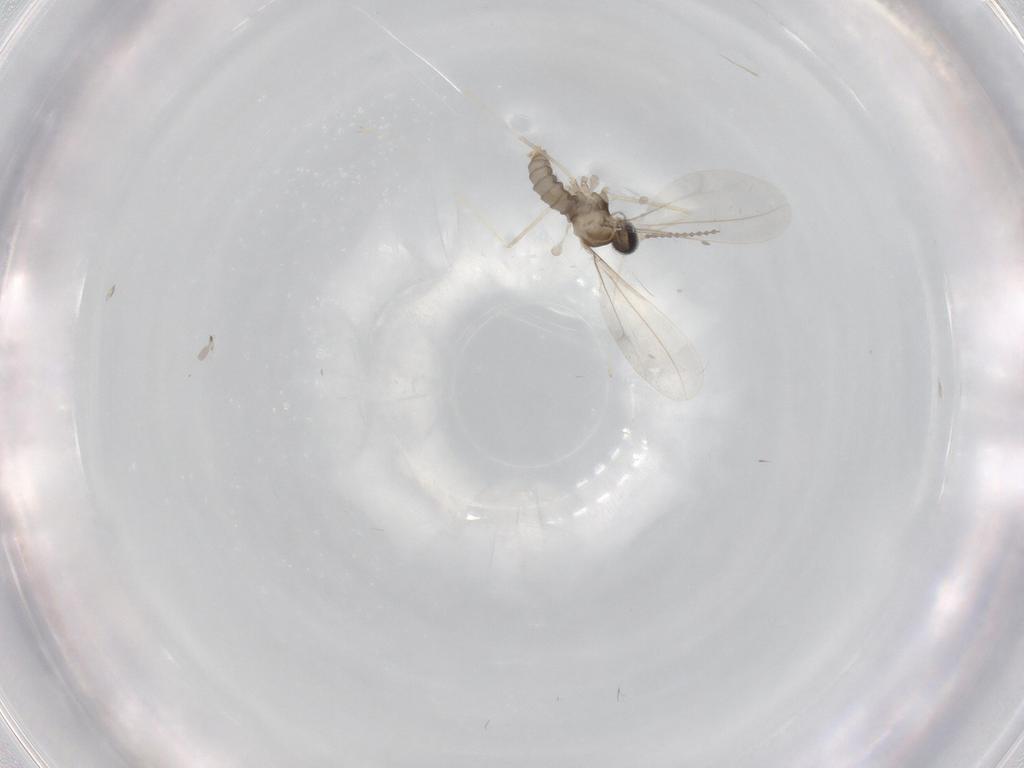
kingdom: Animalia
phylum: Arthropoda
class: Insecta
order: Diptera
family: Cecidomyiidae
